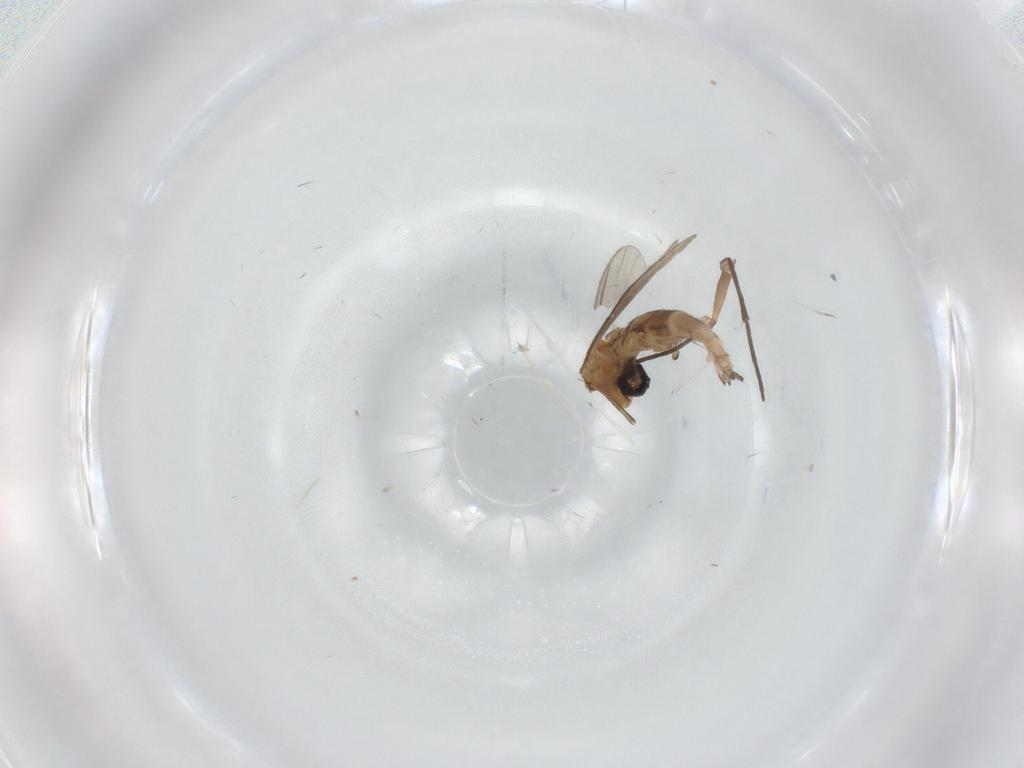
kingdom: Animalia
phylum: Arthropoda
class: Insecta
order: Diptera
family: Sciaridae
